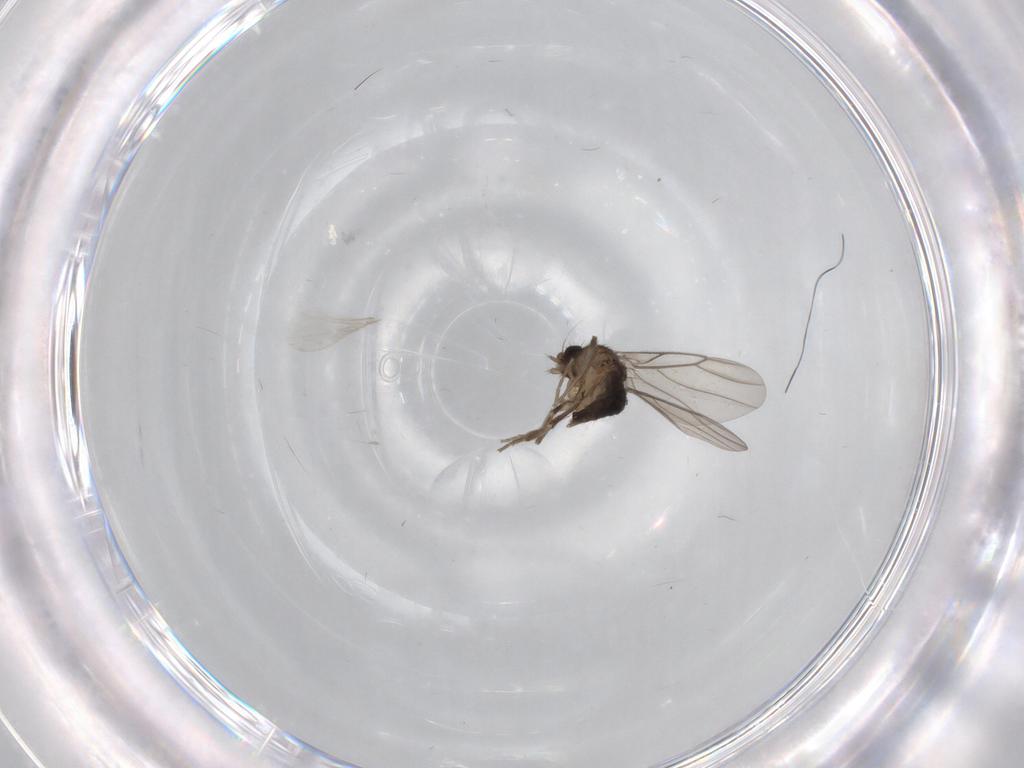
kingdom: Animalia
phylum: Arthropoda
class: Insecta
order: Diptera
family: Phoridae
